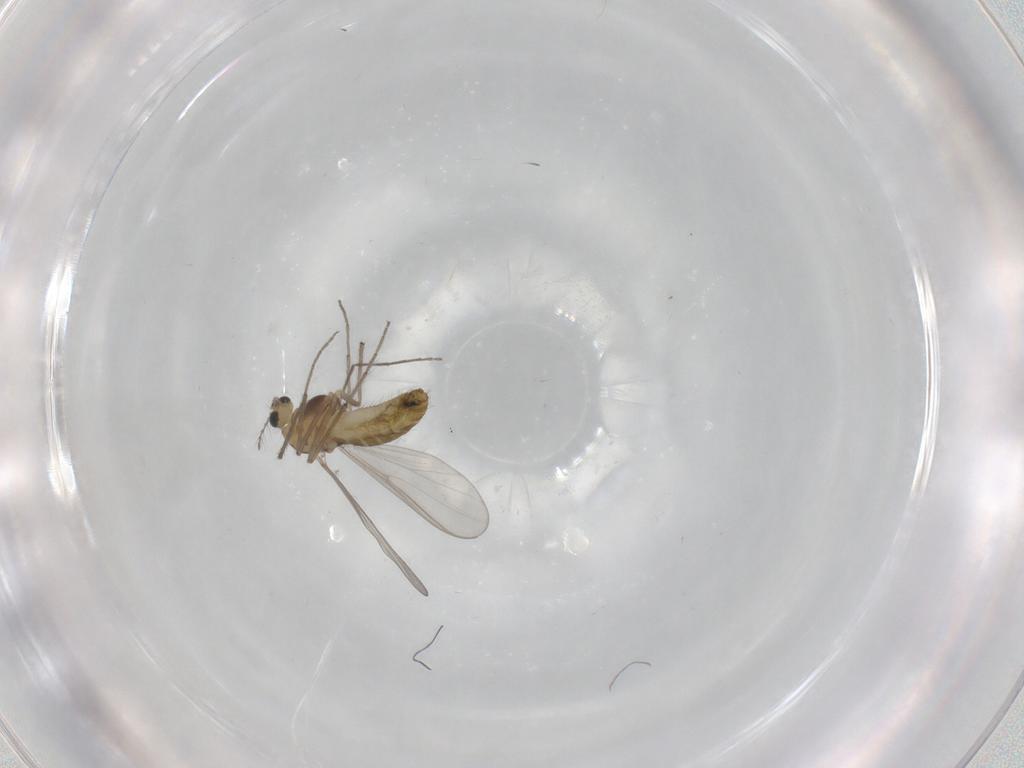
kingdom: Animalia
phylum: Arthropoda
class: Insecta
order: Diptera
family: Chironomidae
